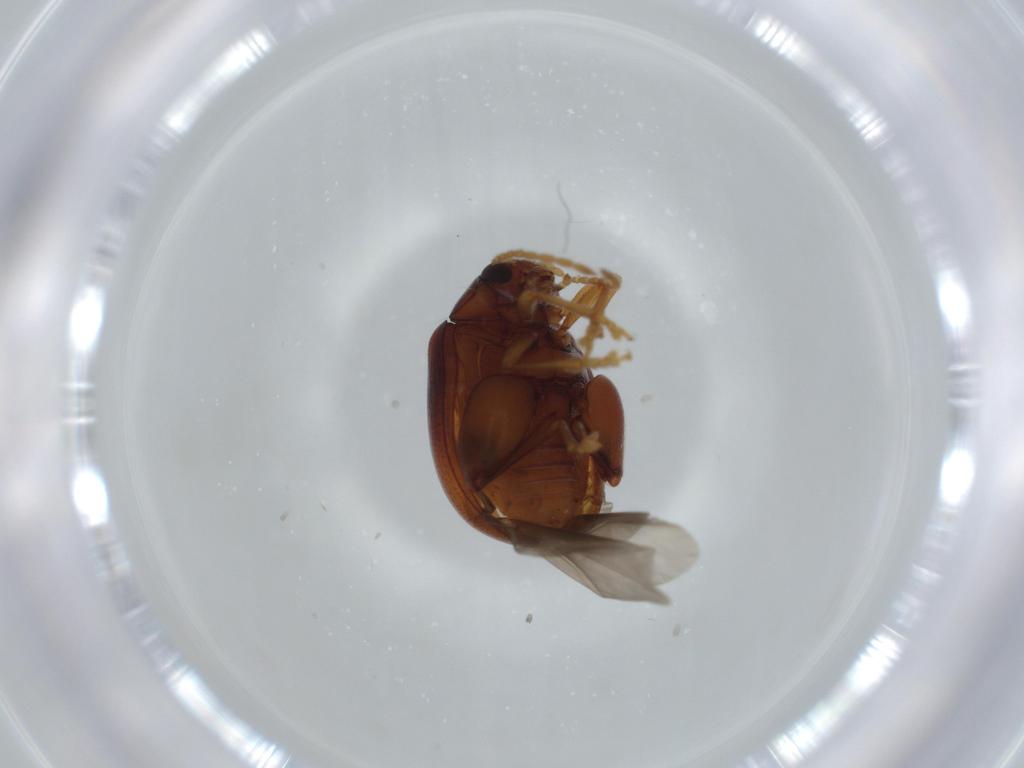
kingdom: Animalia
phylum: Arthropoda
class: Insecta
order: Coleoptera
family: Chrysomelidae
